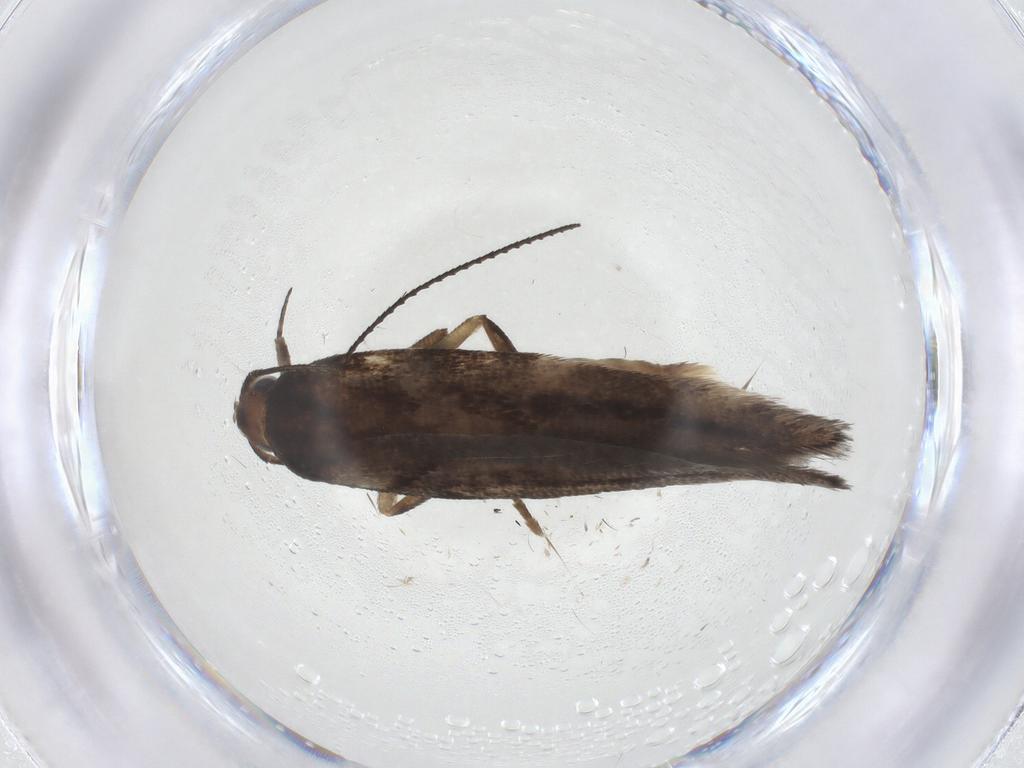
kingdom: Animalia
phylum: Arthropoda
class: Insecta
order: Lepidoptera
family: Gelechiidae
